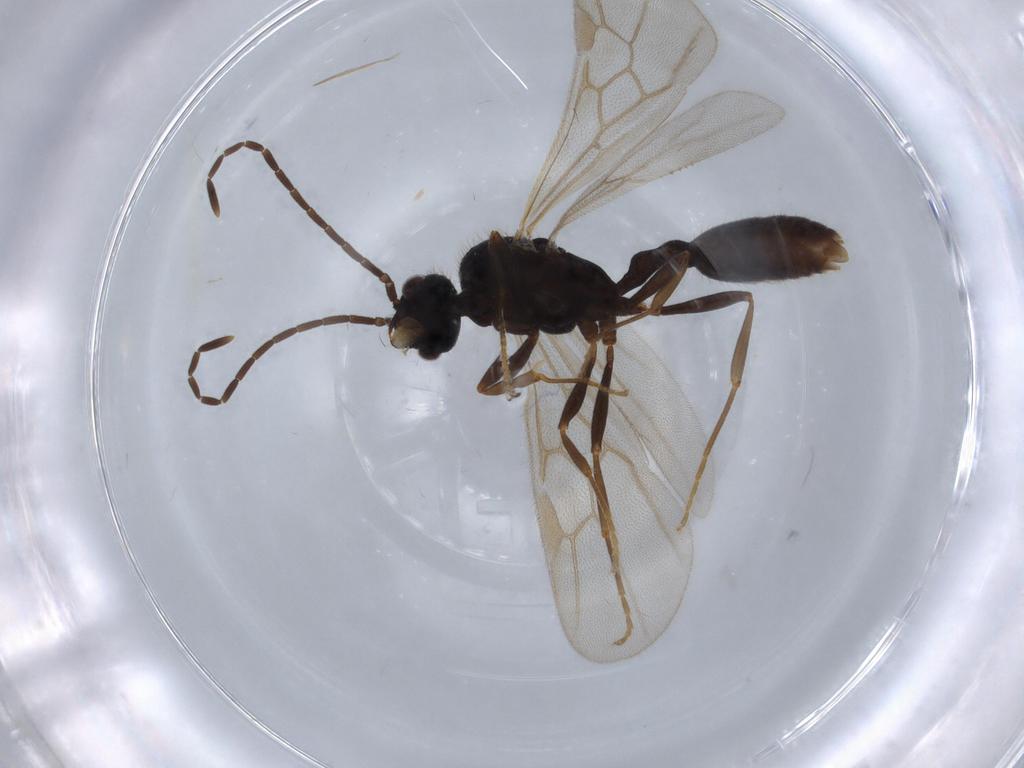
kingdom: Animalia
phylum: Arthropoda
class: Insecta
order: Hymenoptera
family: Formicidae
